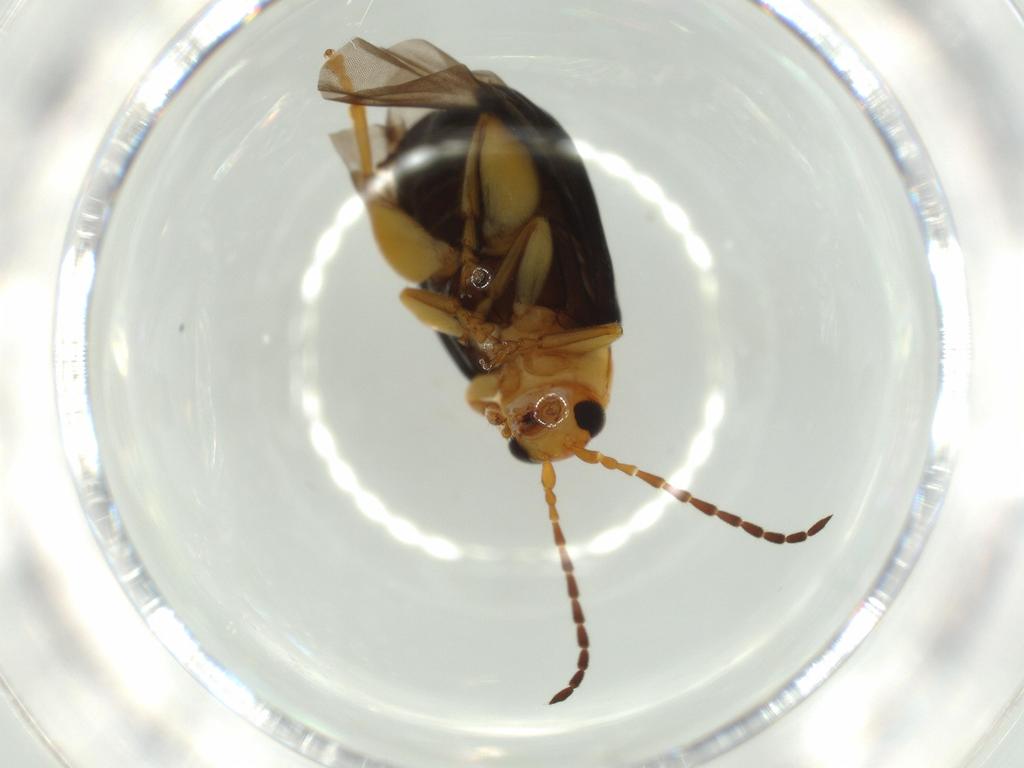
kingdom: Animalia
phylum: Arthropoda
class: Insecta
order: Coleoptera
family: Chrysomelidae
